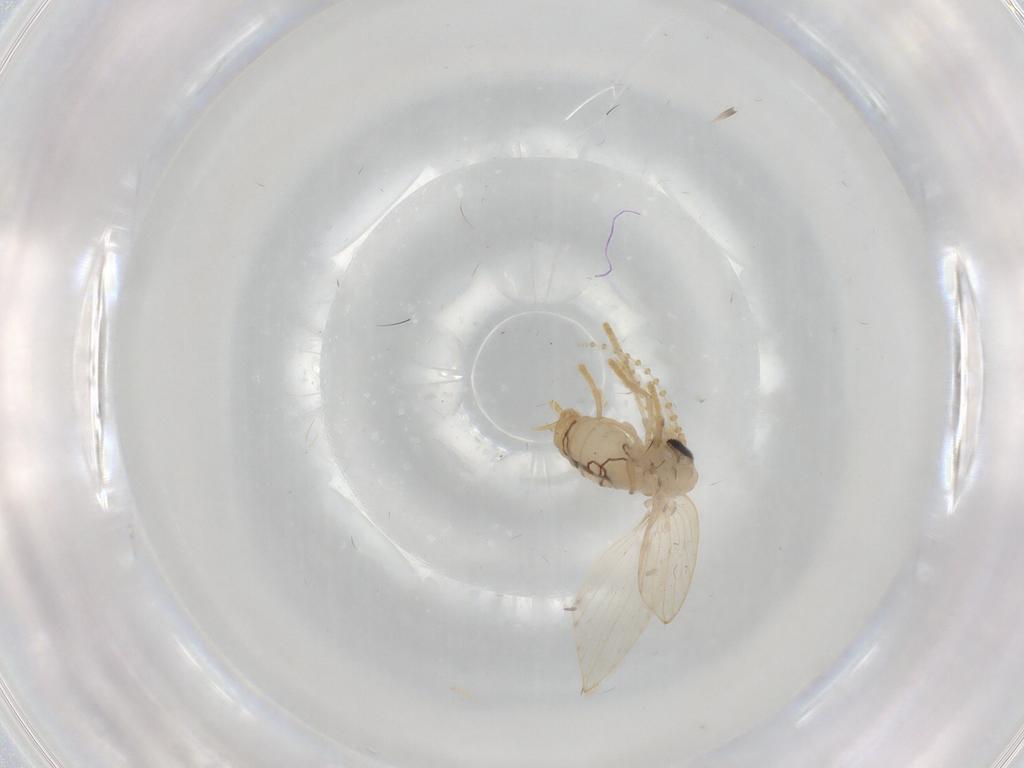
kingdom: Animalia
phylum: Arthropoda
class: Insecta
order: Diptera
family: Psychodidae
